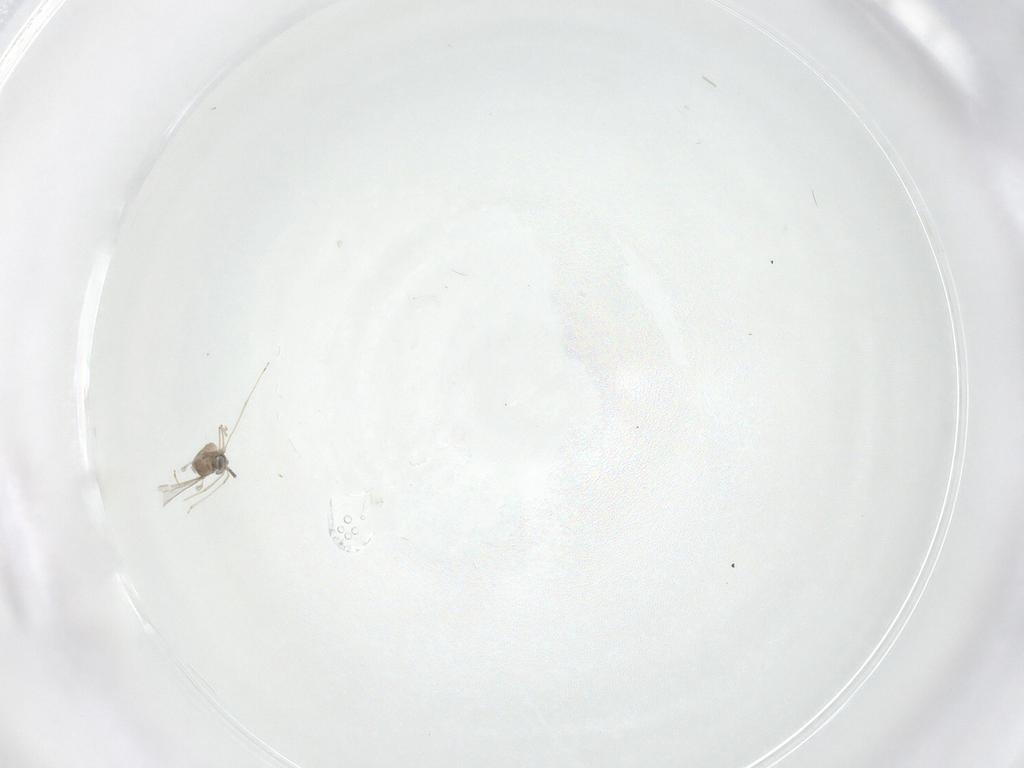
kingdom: Animalia
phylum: Arthropoda
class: Insecta
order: Diptera
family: Cecidomyiidae
